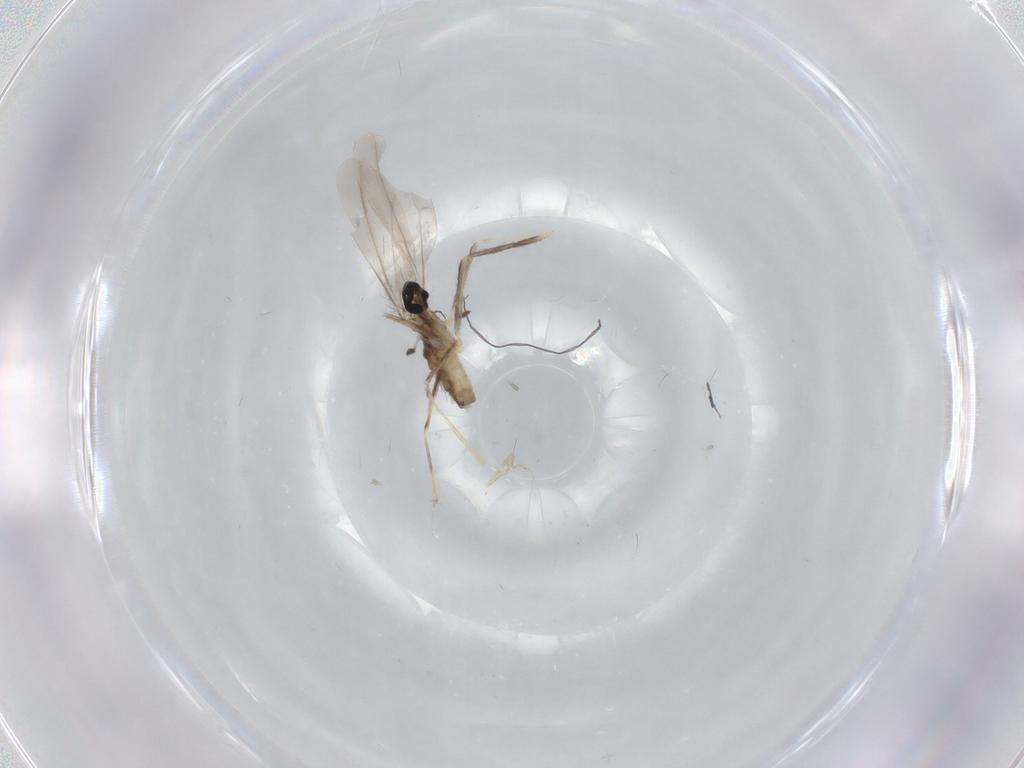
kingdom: Animalia
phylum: Arthropoda
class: Insecta
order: Diptera
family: Cecidomyiidae
